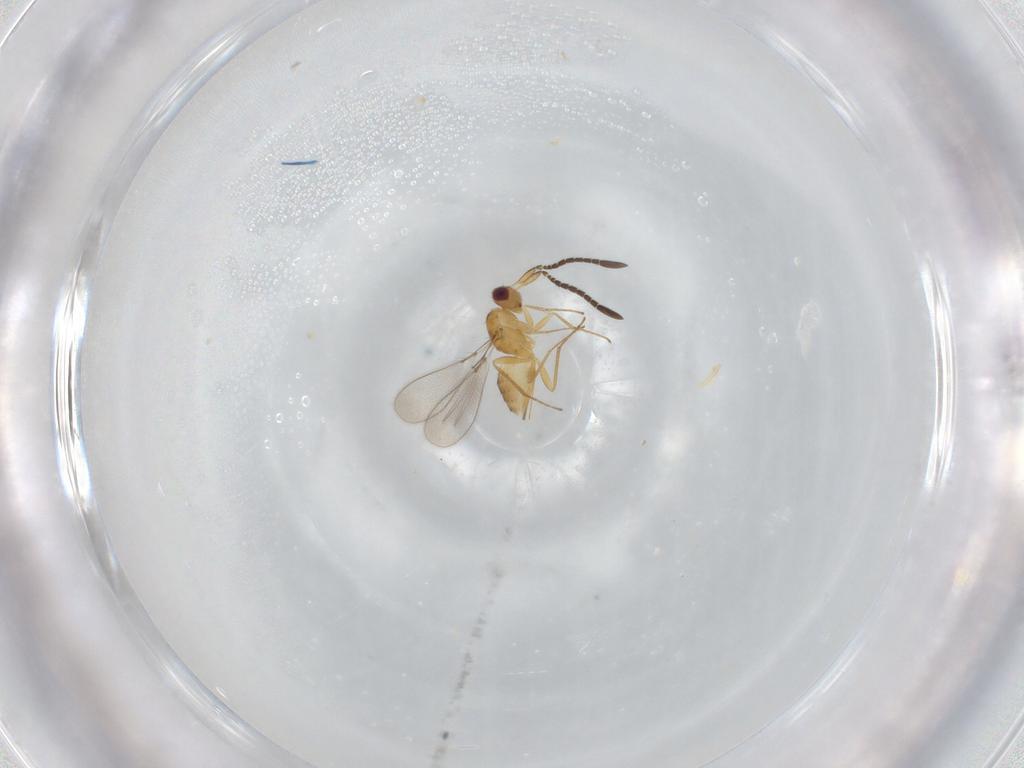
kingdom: Animalia
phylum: Arthropoda
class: Insecta
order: Hymenoptera
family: Mymaridae
